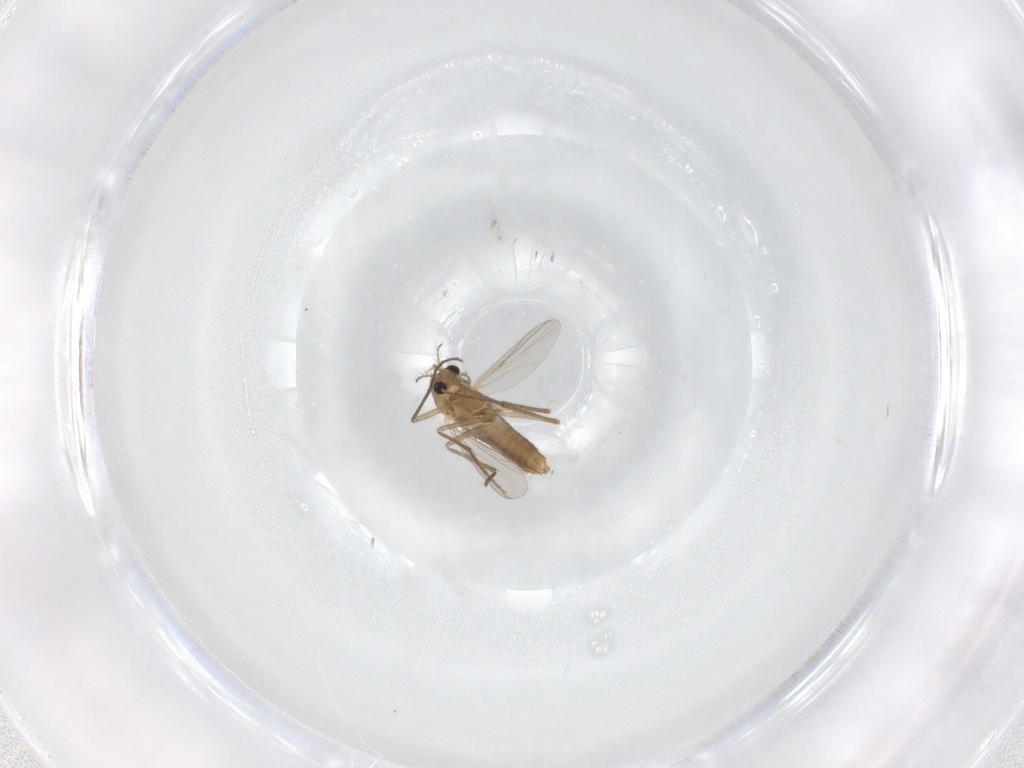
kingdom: Animalia
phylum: Arthropoda
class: Insecta
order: Diptera
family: Chironomidae
